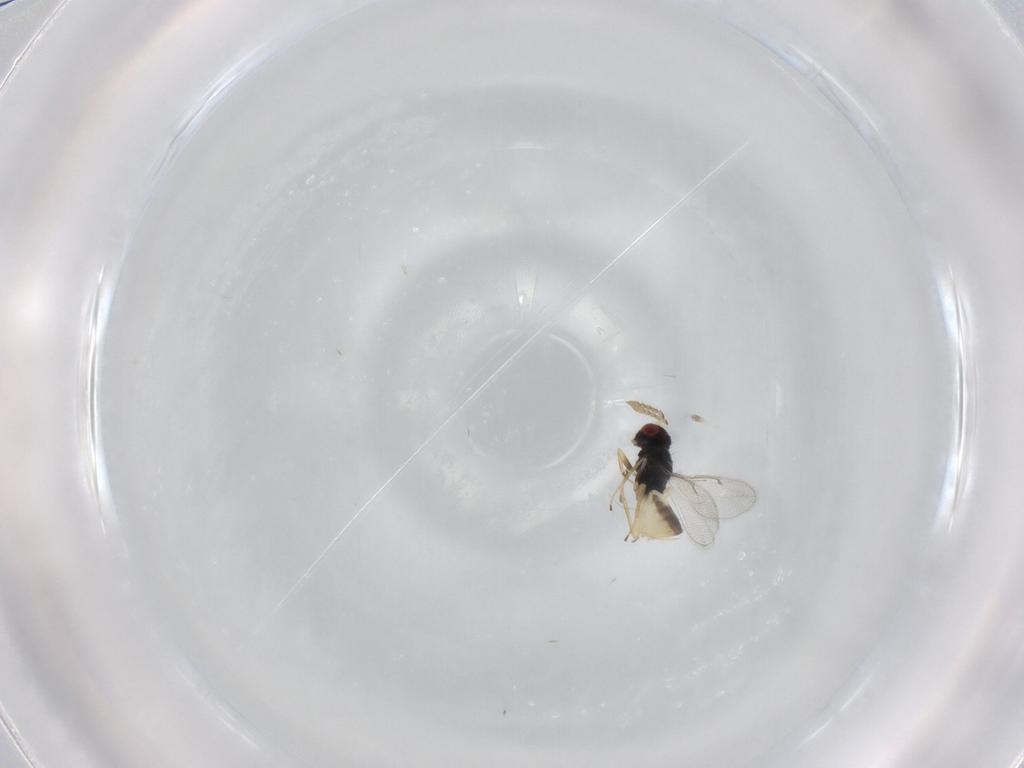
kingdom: Animalia
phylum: Arthropoda
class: Insecta
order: Hymenoptera
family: Eulophidae
